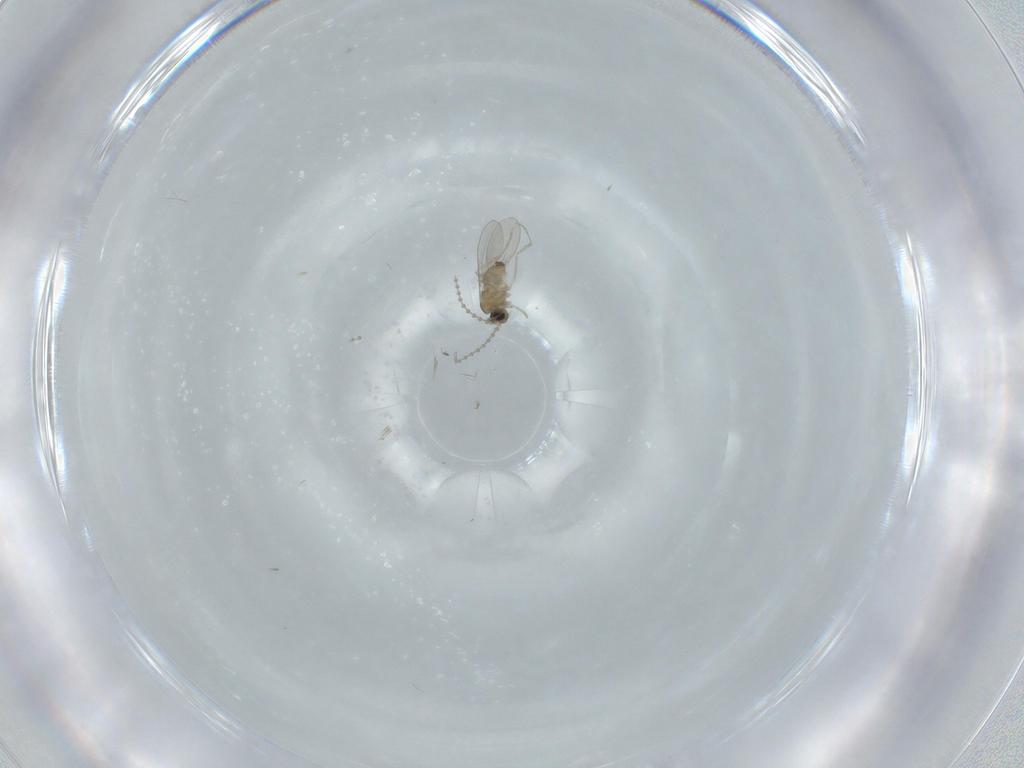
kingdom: Animalia
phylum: Arthropoda
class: Insecta
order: Diptera
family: Cecidomyiidae
